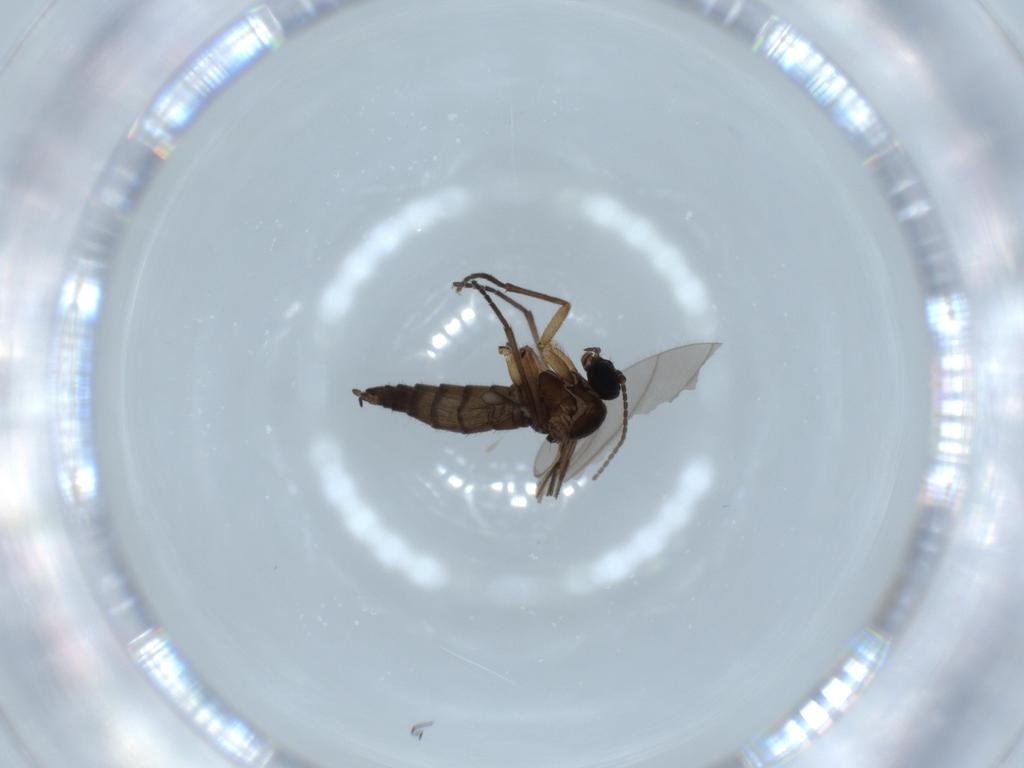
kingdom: Animalia
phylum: Arthropoda
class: Insecta
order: Diptera
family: Sciaridae
